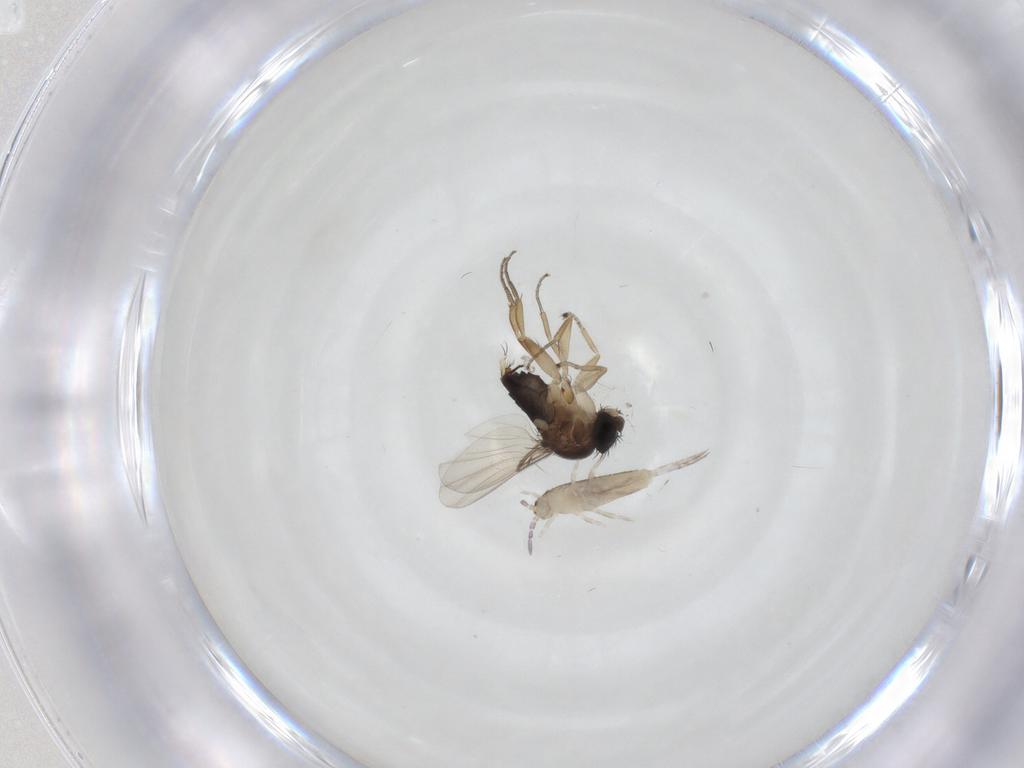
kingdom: Animalia
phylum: Arthropoda
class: Insecta
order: Diptera
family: Phoridae
